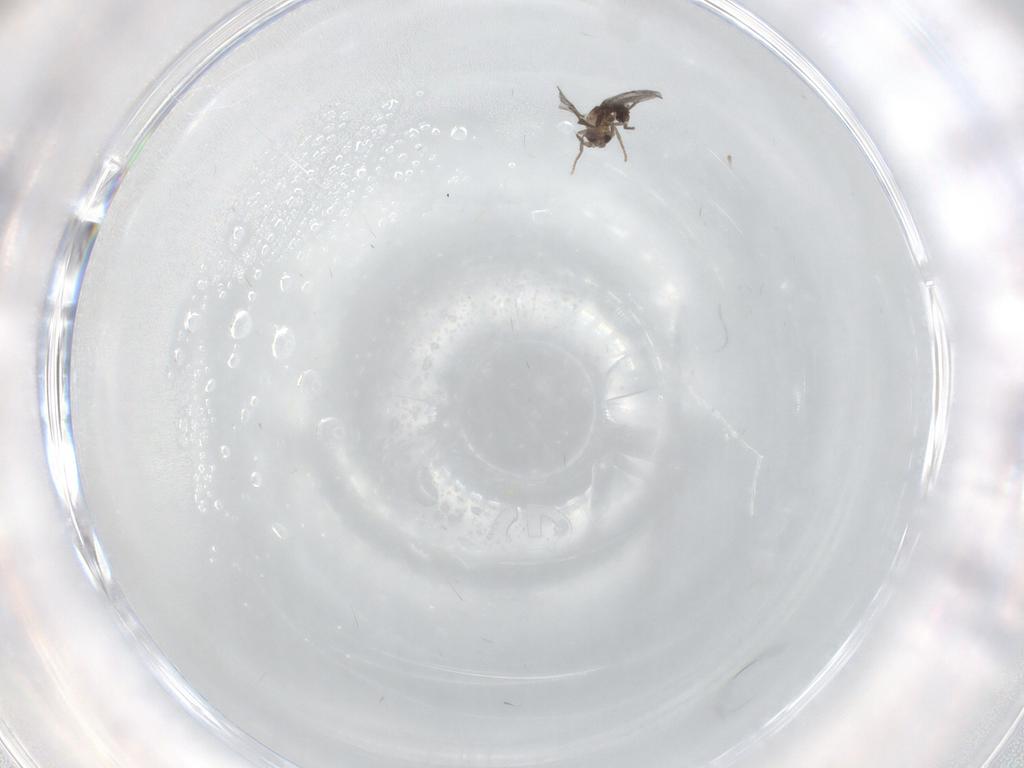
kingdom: Animalia
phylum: Arthropoda
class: Insecta
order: Diptera
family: Phoridae
